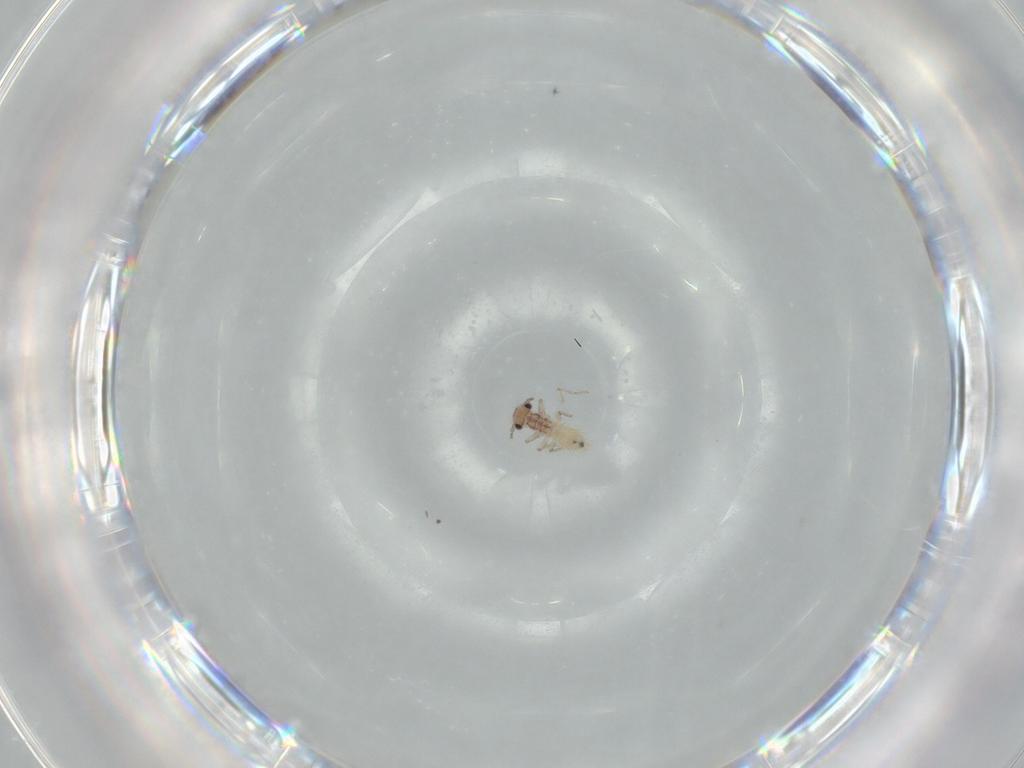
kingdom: Animalia
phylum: Arthropoda
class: Insecta
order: Psocodea
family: Lepidopsocidae
